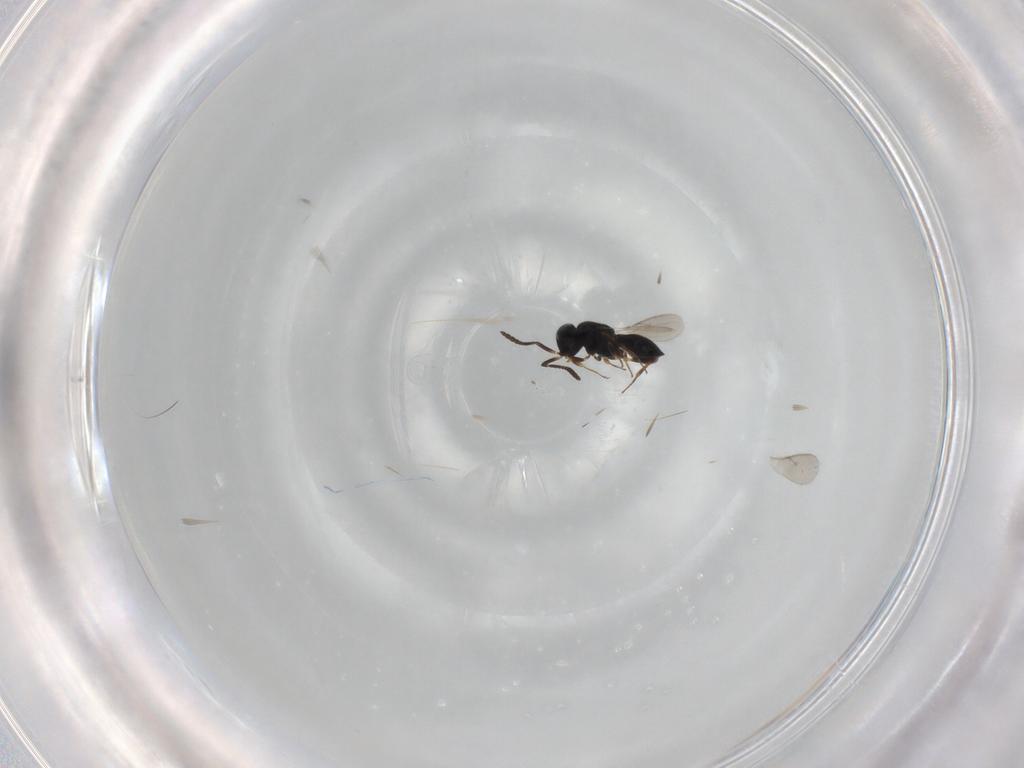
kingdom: Animalia
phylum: Arthropoda
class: Insecta
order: Hymenoptera
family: Scelionidae
